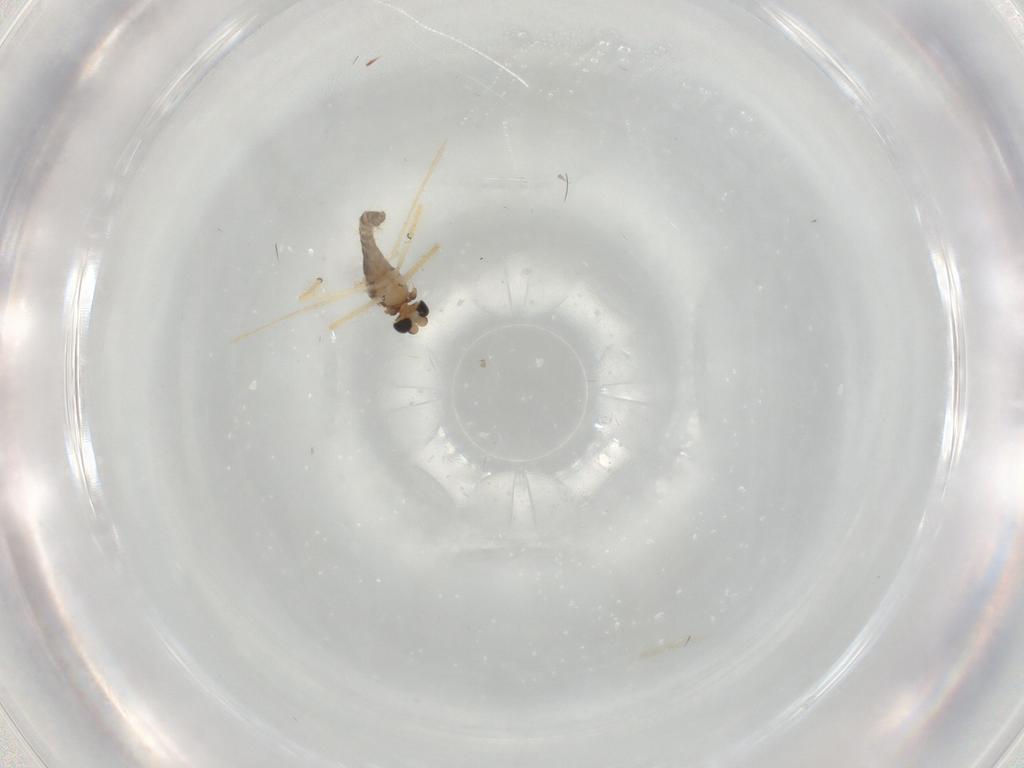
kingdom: Animalia
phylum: Arthropoda
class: Insecta
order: Diptera
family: Chironomidae
